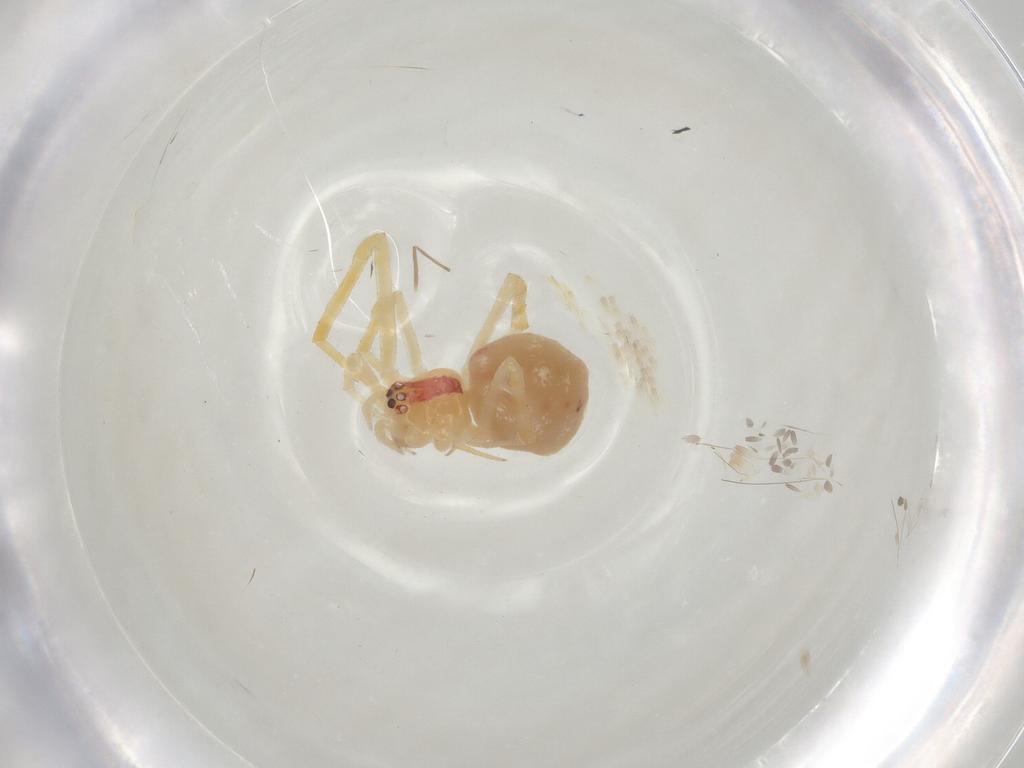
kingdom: Animalia
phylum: Arthropoda
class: Arachnida
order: Araneae
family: Theridiidae
